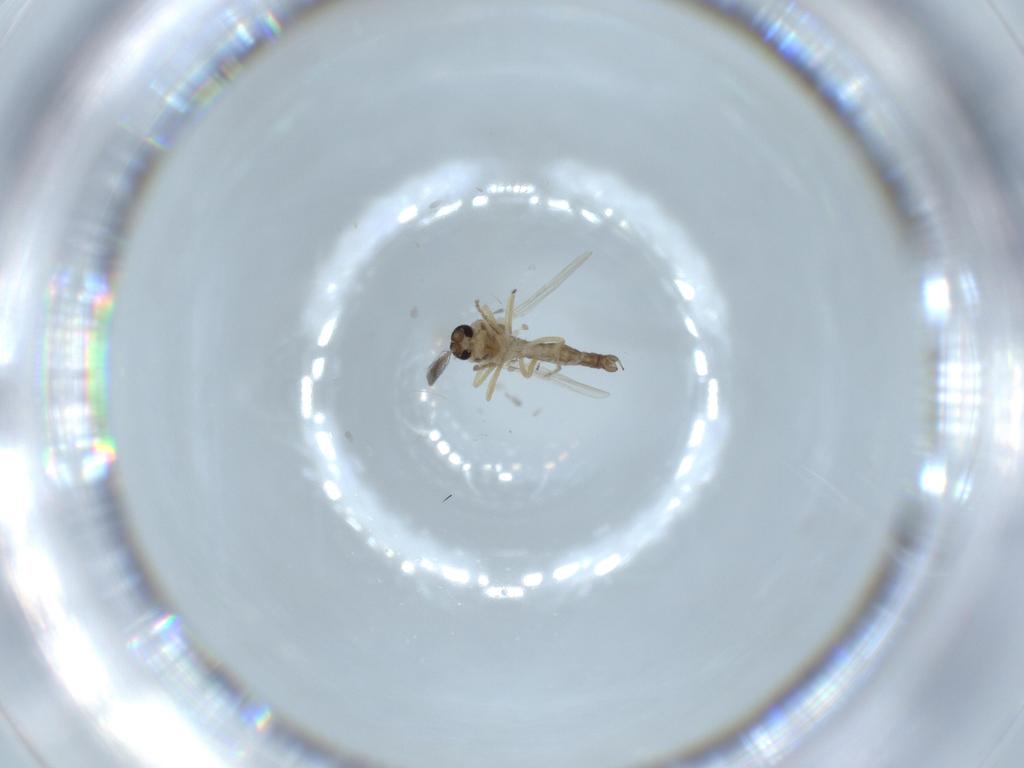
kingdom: Animalia
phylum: Arthropoda
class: Insecta
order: Diptera
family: Ceratopogonidae
